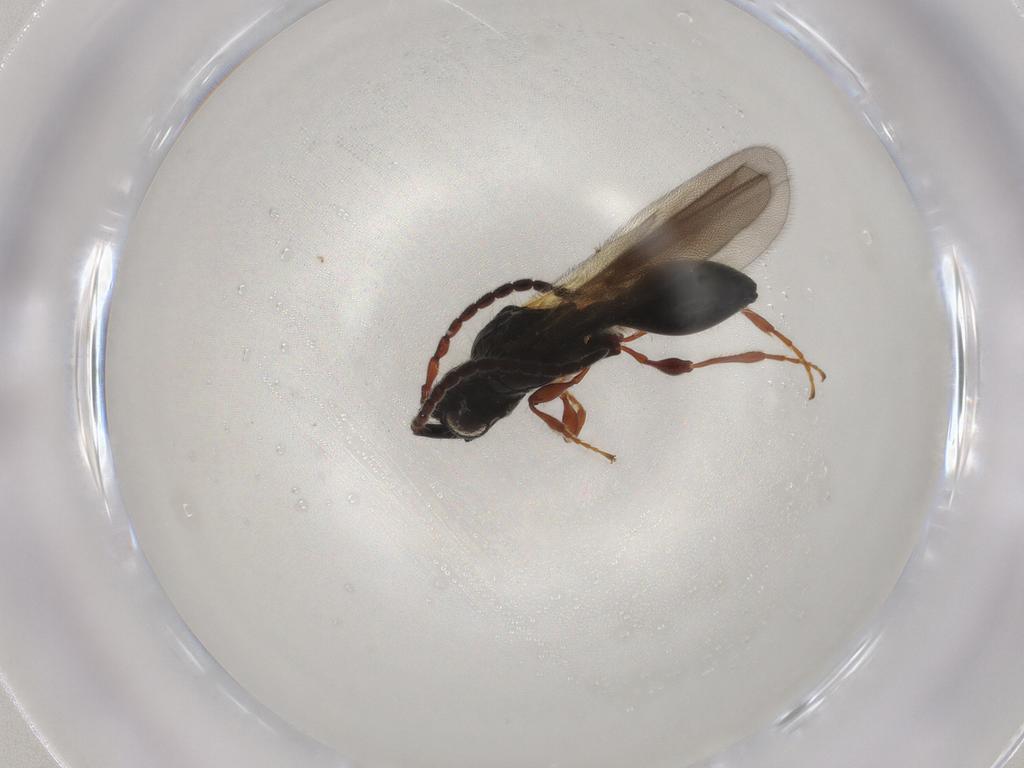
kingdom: Animalia
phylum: Arthropoda
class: Insecta
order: Hymenoptera
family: Diapriidae
